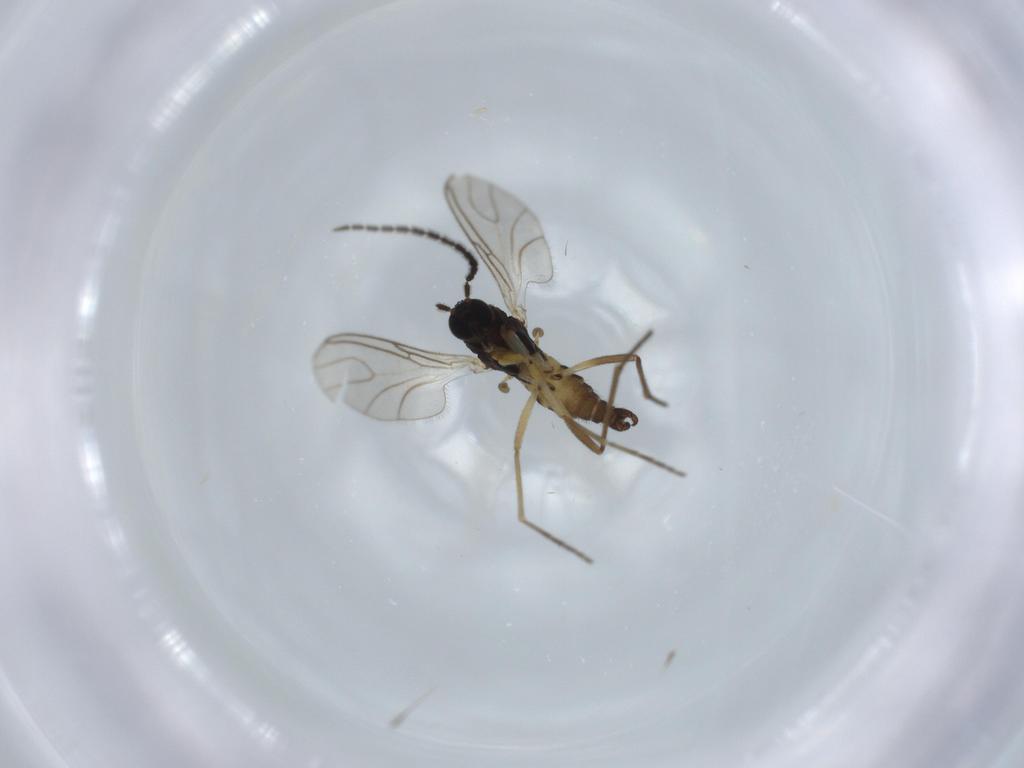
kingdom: Animalia
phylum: Arthropoda
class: Insecta
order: Diptera
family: Sciaridae
